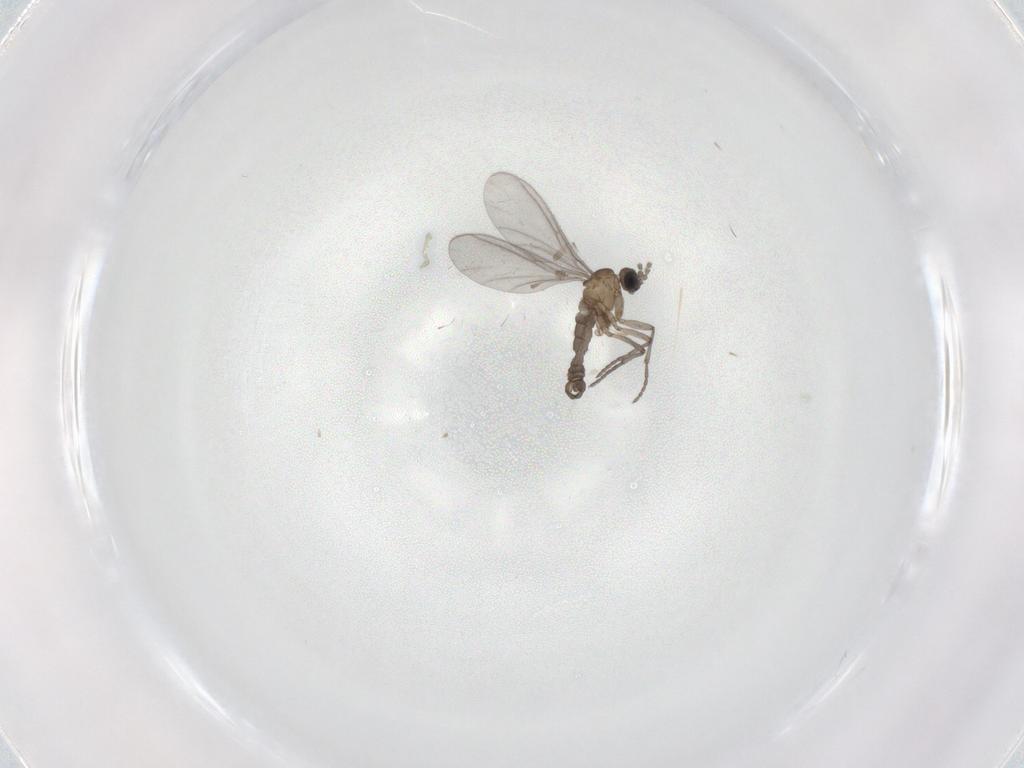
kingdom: Animalia
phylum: Arthropoda
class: Insecta
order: Diptera
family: Sciaridae
